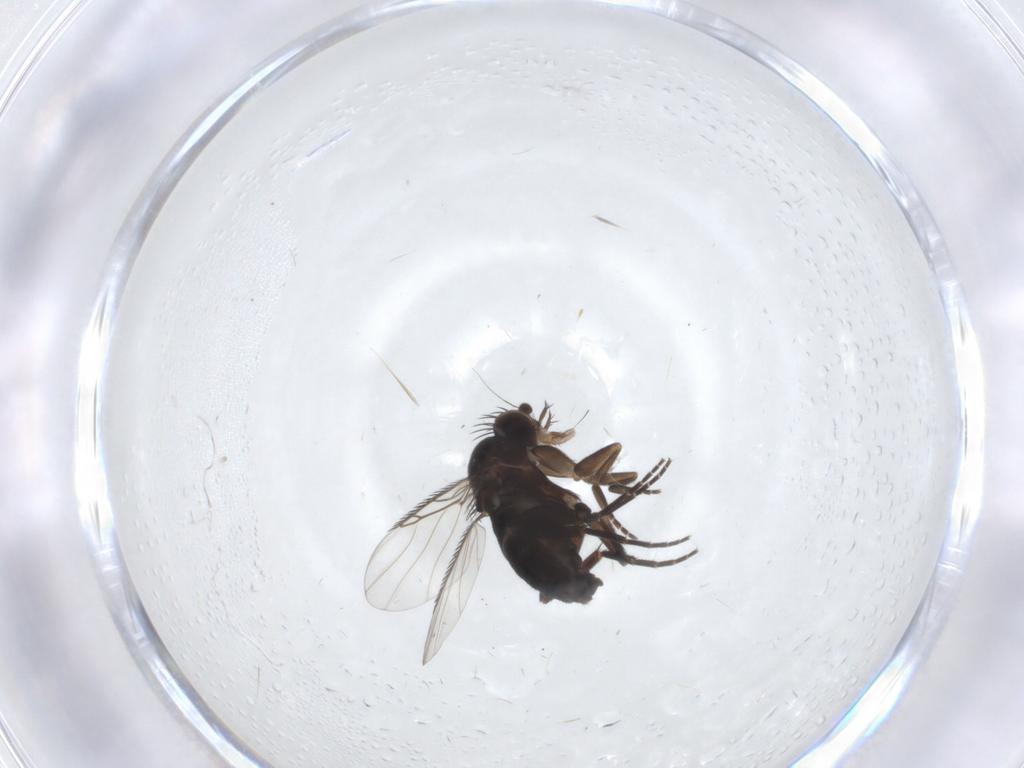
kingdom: Animalia
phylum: Arthropoda
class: Insecta
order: Diptera
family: Phoridae
